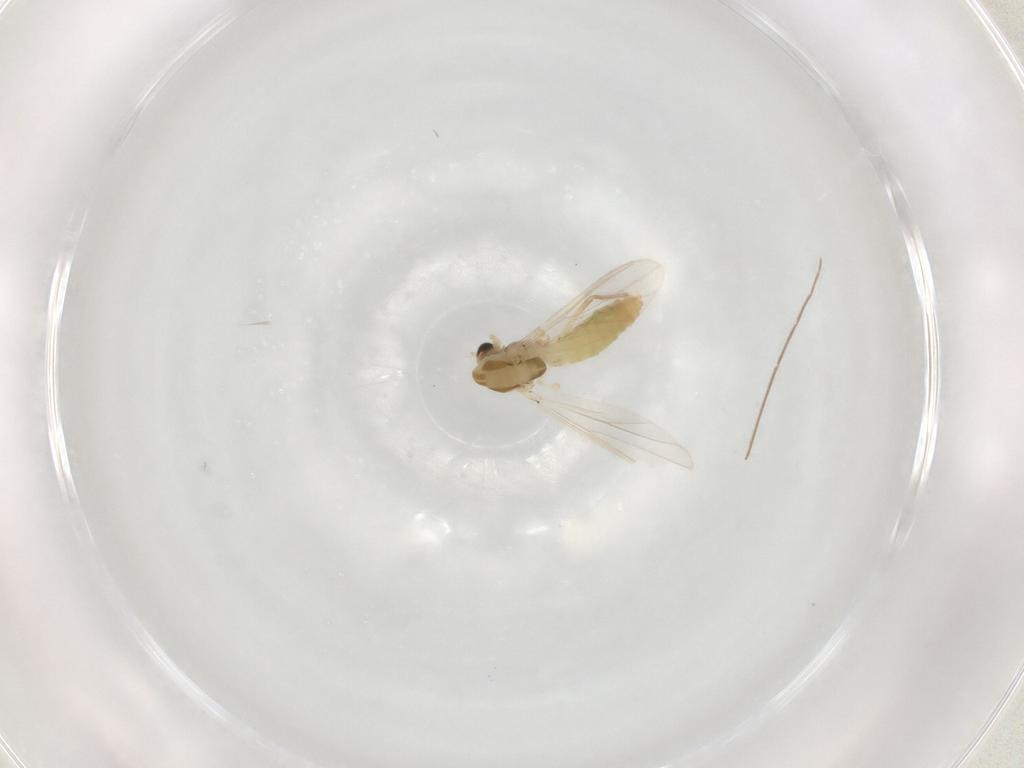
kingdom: Animalia
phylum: Arthropoda
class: Insecta
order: Diptera
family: Chironomidae
